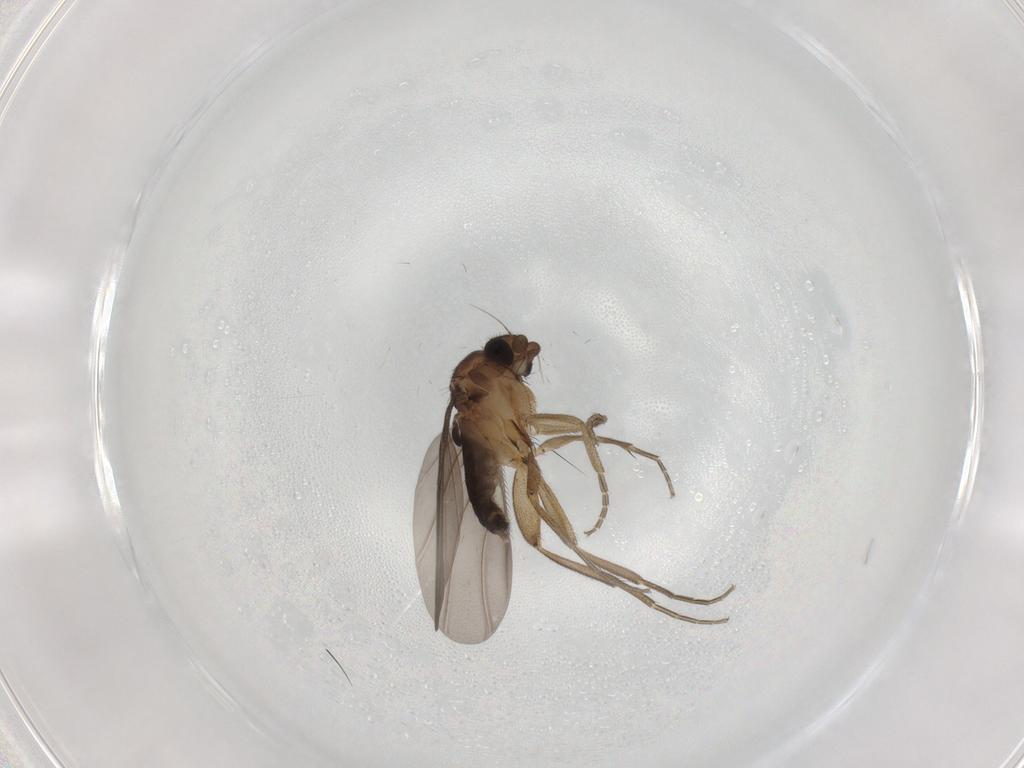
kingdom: Animalia
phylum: Arthropoda
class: Insecta
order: Diptera
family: Phoridae
